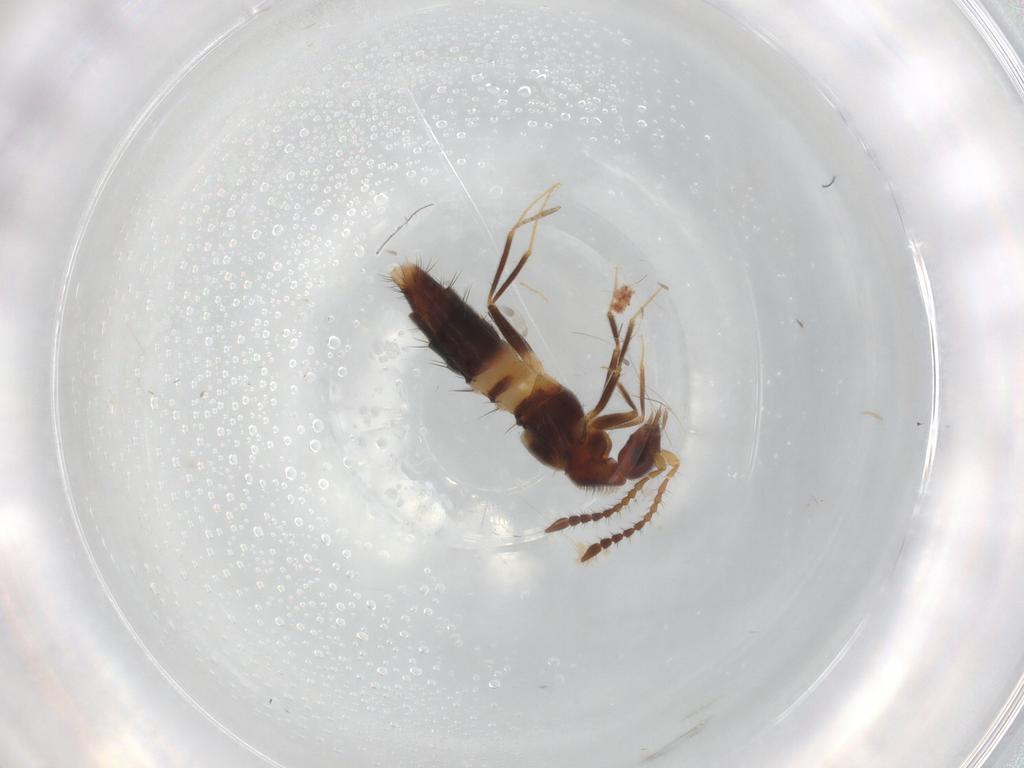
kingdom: Animalia
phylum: Arthropoda
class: Insecta
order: Coleoptera
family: Staphylinidae
